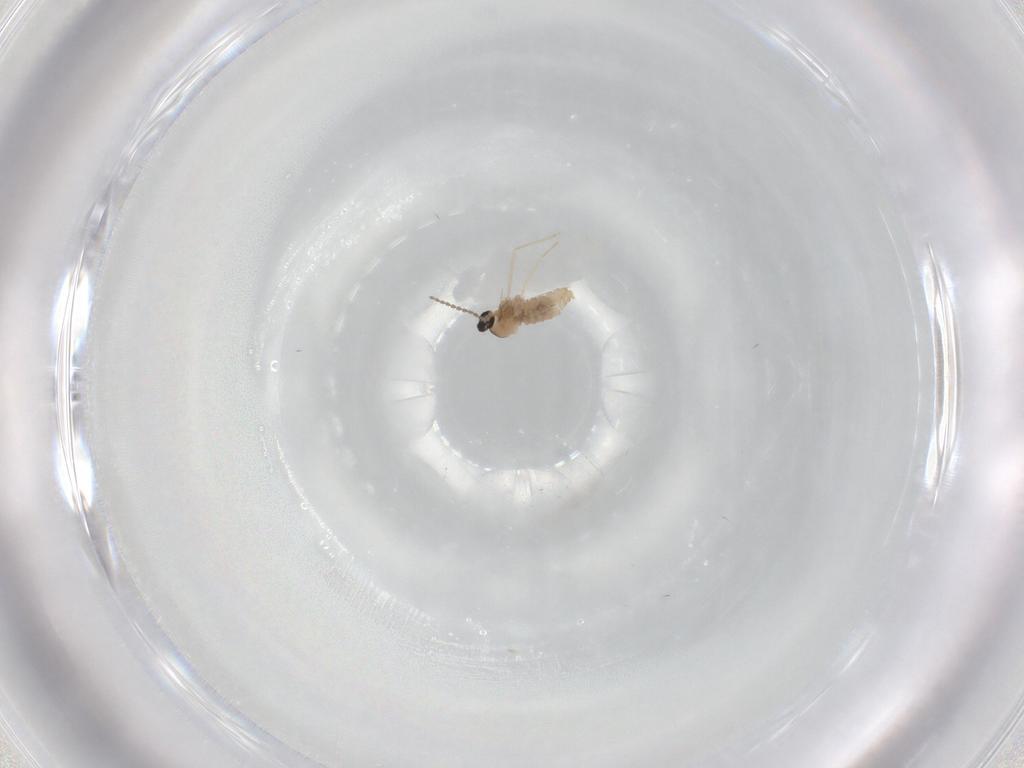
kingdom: Animalia
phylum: Arthropoda
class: Insecta
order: Diptera
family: Cecidomyiidae
